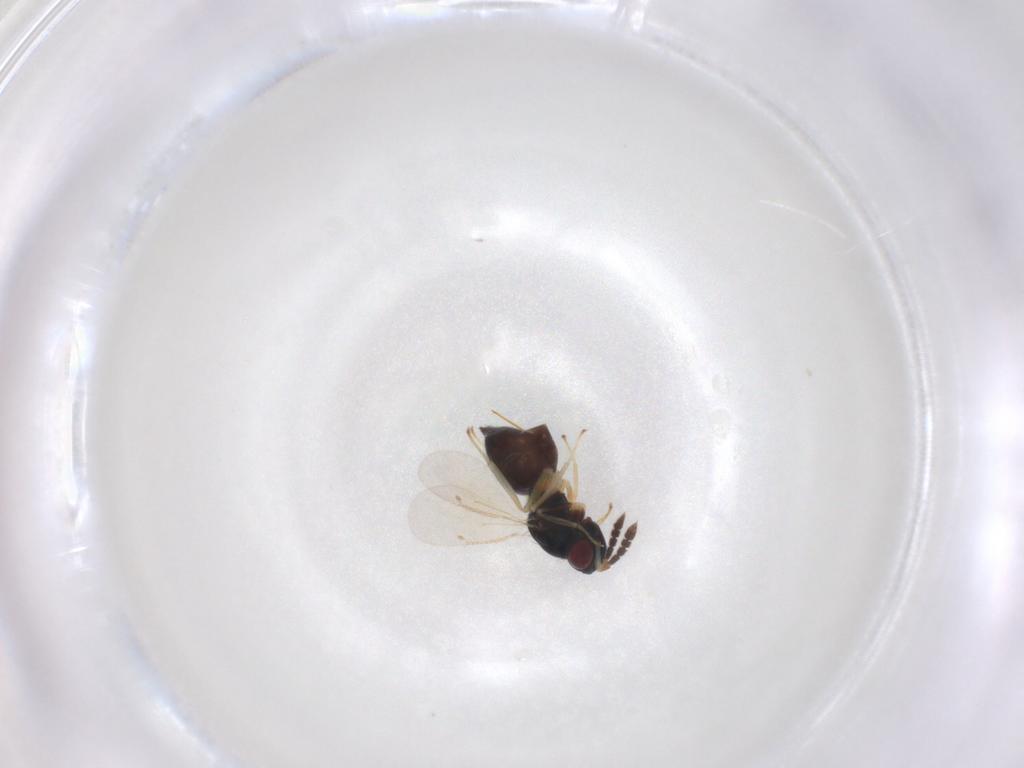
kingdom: Animalia
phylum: Arthropoda
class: Insecta
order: Hymenoptera
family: Eulophidae
